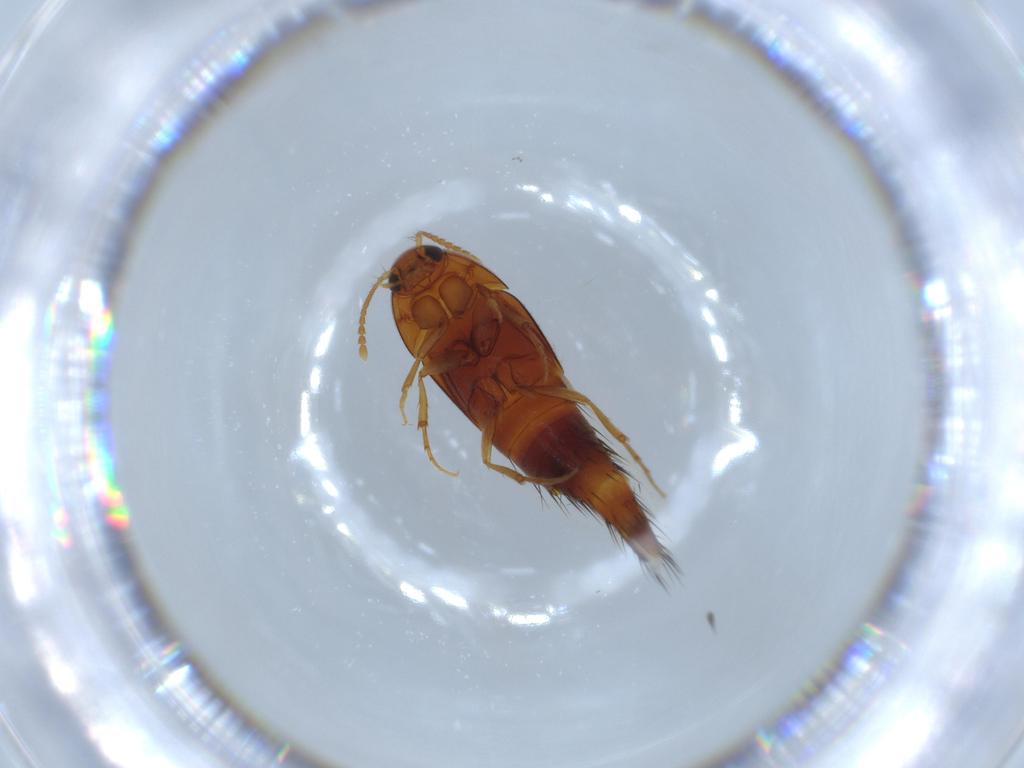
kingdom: Animalia
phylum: Arthropoda
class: Insecta
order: Coleoptera
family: Staphylinidae
